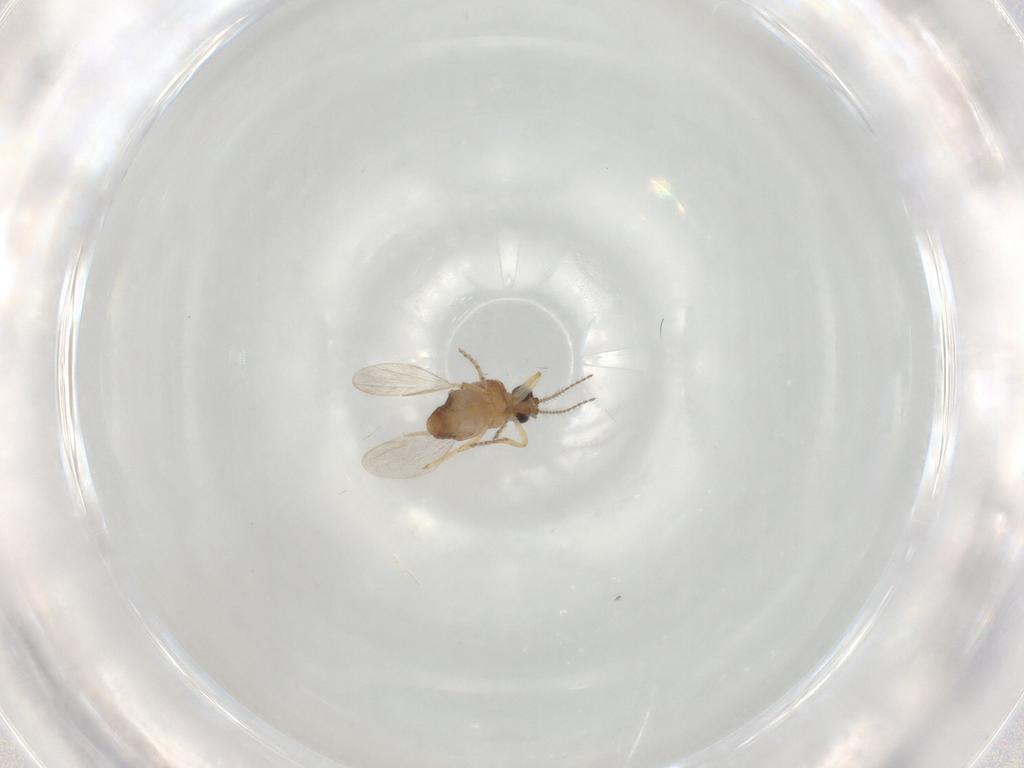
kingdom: Animalia
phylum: Arthropoda
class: Insecta
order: Diptera
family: Ceratopogonidae
